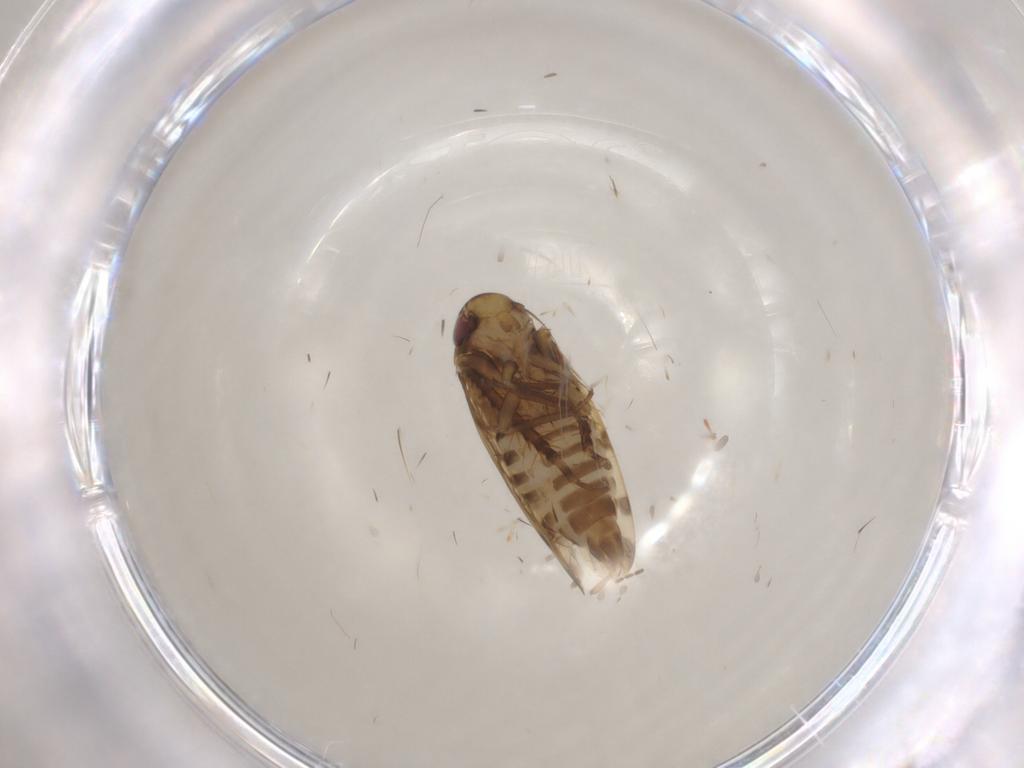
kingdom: Animalia
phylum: Arthropoda
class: Insecta
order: Hemiptera
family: Cicadellidae
